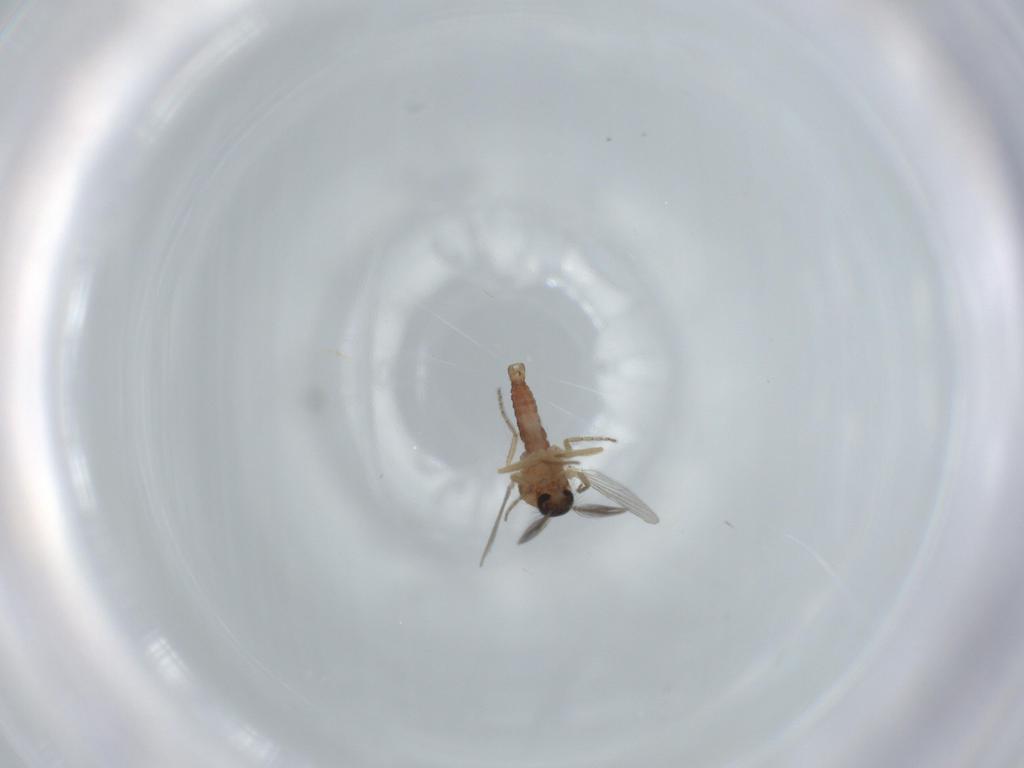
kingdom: Animalia
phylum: Arthropoda
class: Insecta
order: Diptera
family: Ceratopogonidae
